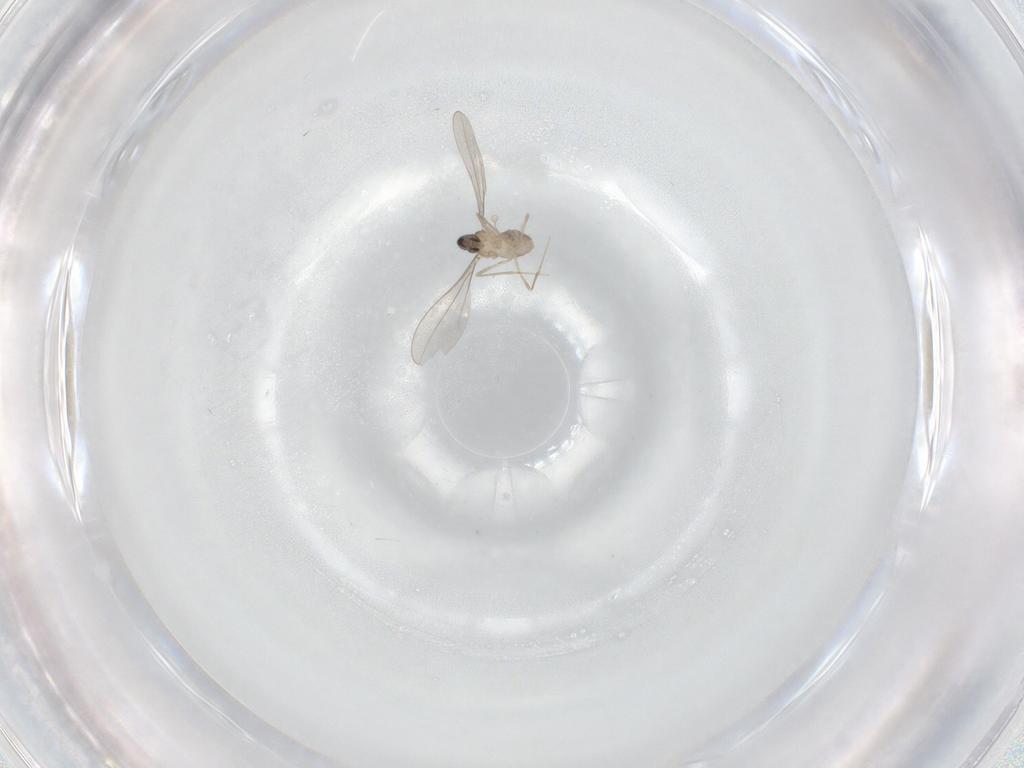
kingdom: Animalia
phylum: Arthropoda
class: Insecta
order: Diptera
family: Cecidomyiidae
